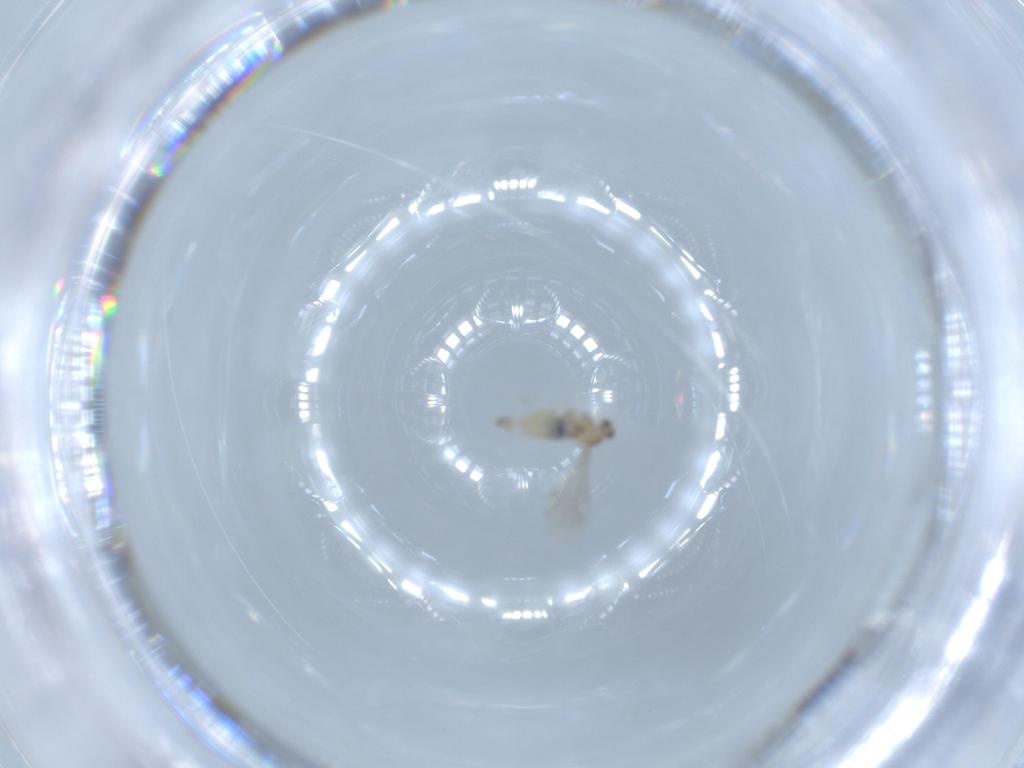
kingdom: Animalia
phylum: Arthropoda
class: Insecta
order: Diptera
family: Cecidomyiidae
